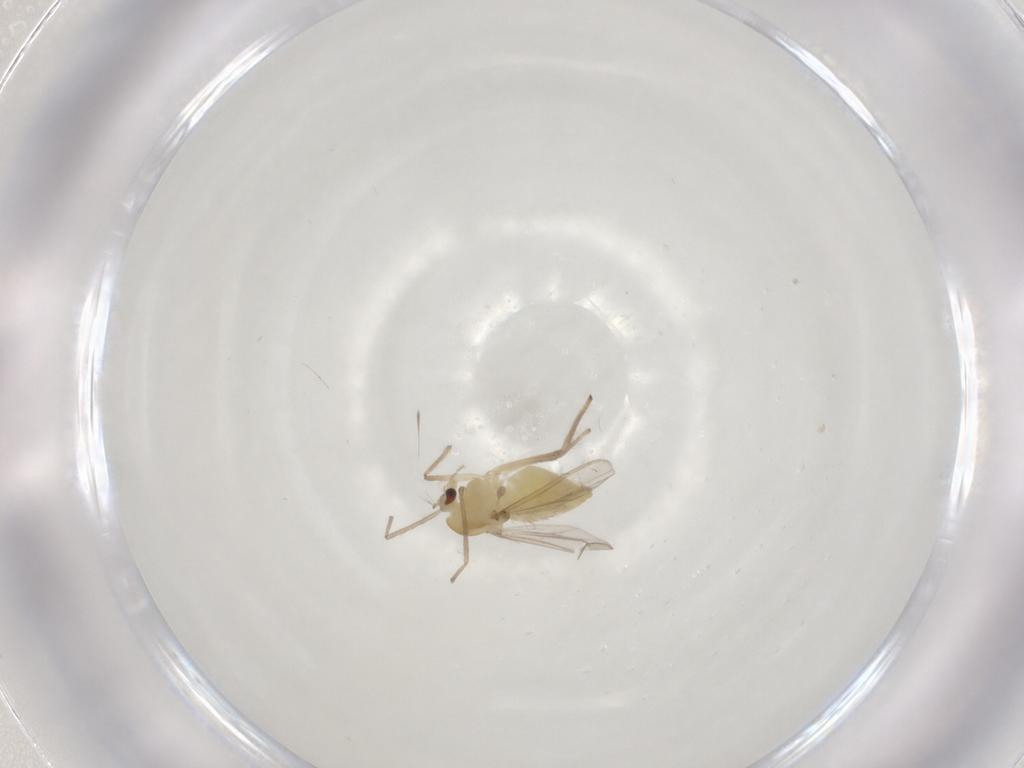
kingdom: Animalia
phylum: Arthropoda
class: Insecta
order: Diptera
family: Chironomidae
